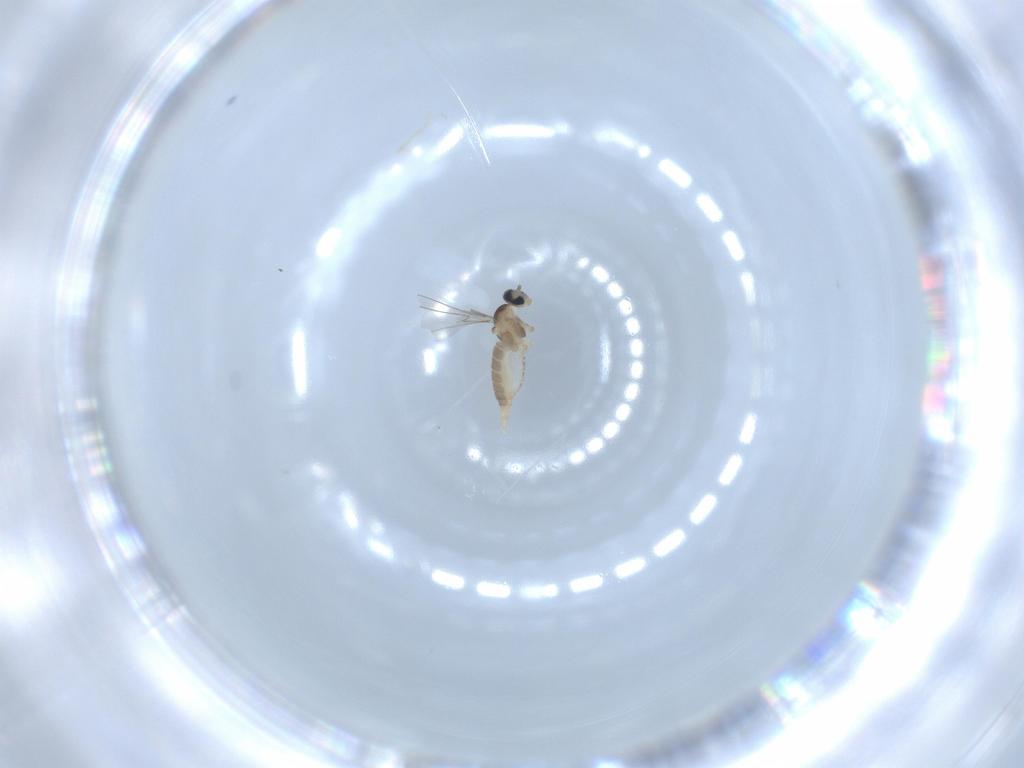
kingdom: Animalia
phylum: Arthropoda
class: Insecta
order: Diptera
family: Cecidomyiidae
